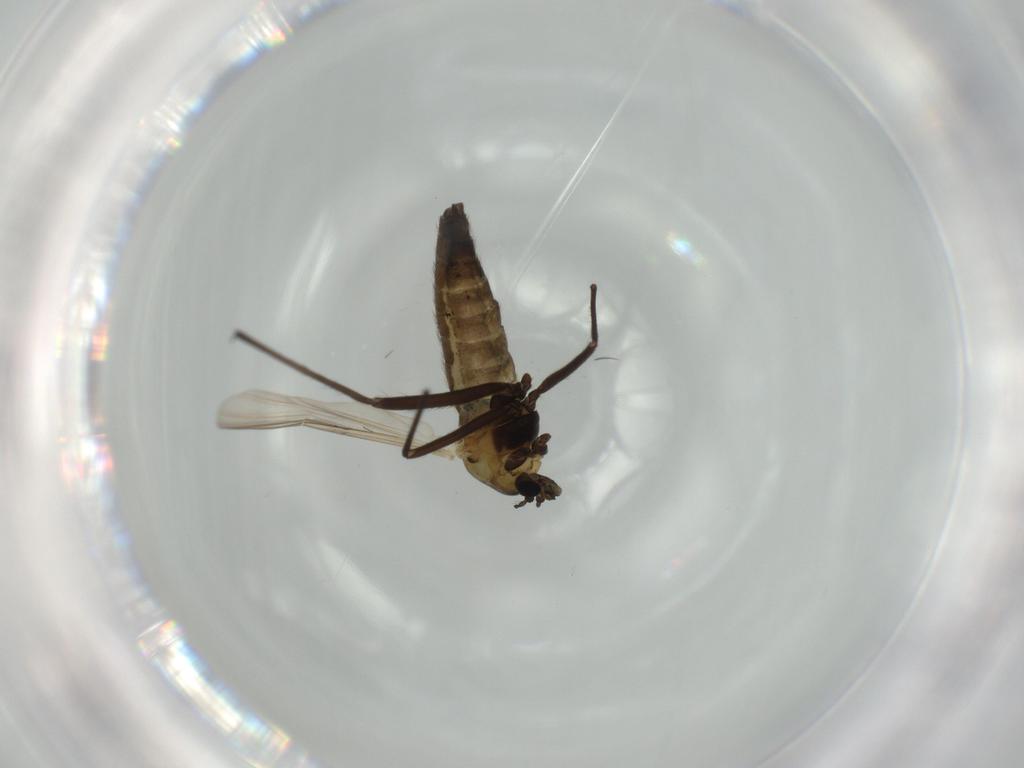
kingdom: Animalia
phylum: Arthropoda
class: Insecta
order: Diptera
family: Chironomidae
